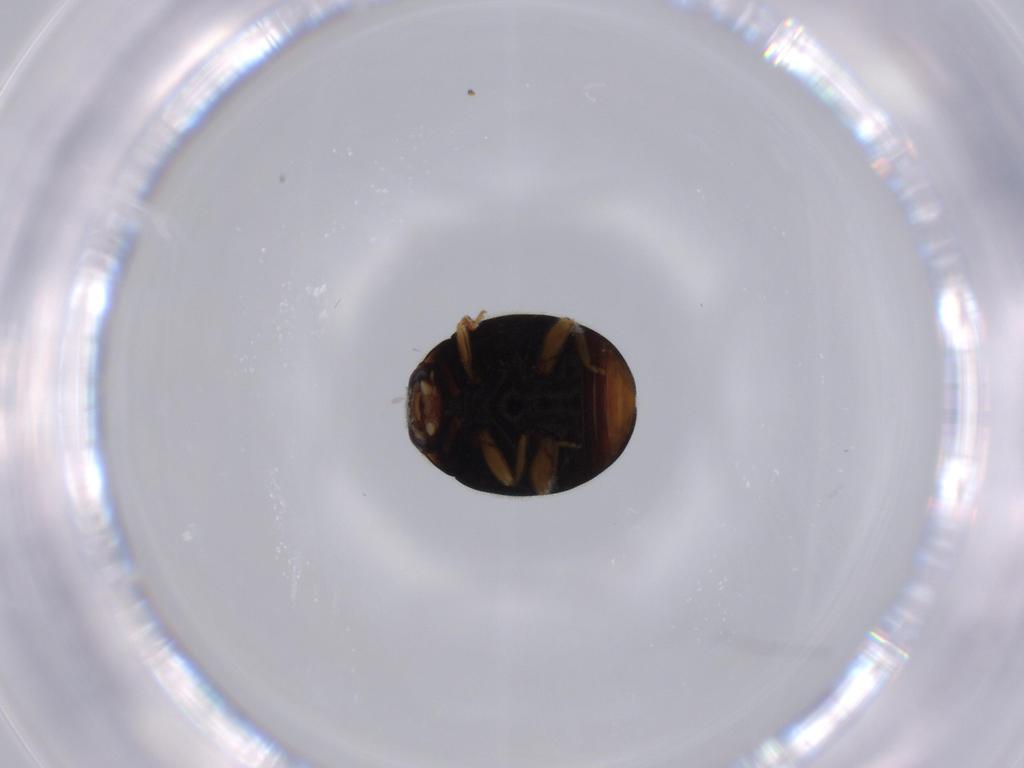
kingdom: Animalia
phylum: Arthropoda
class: Insecta
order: Coleoptera
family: Coccinellidae
